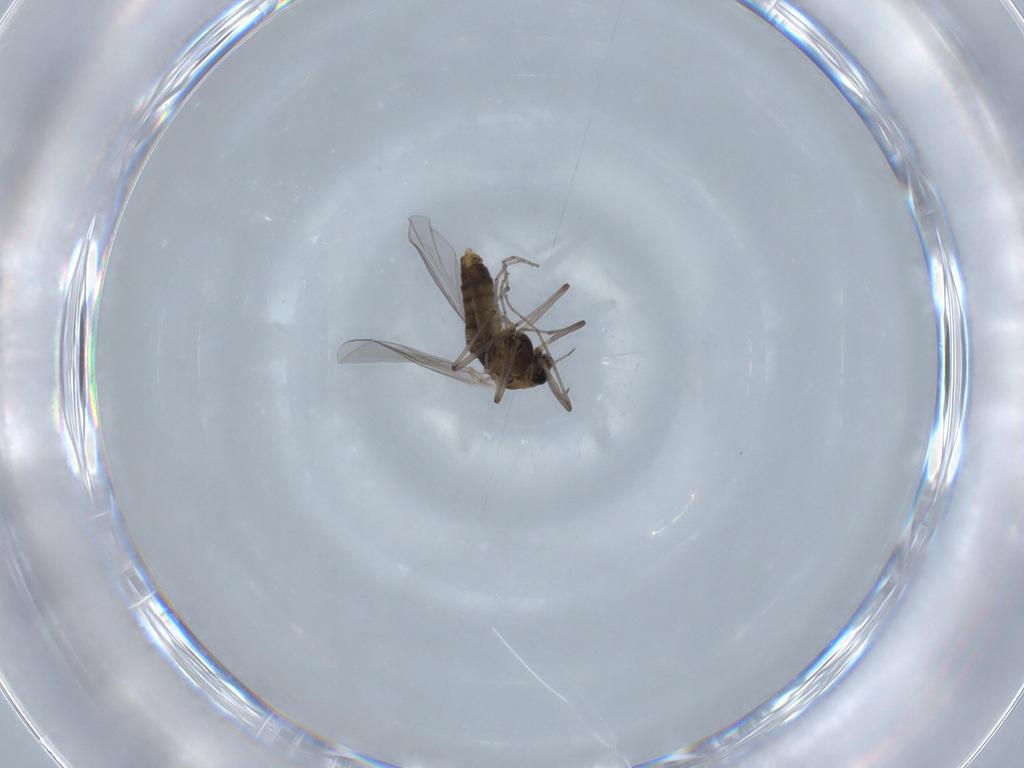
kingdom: Animalia
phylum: Arthropoda
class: Insecta
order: Diptera
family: Chironomidae
